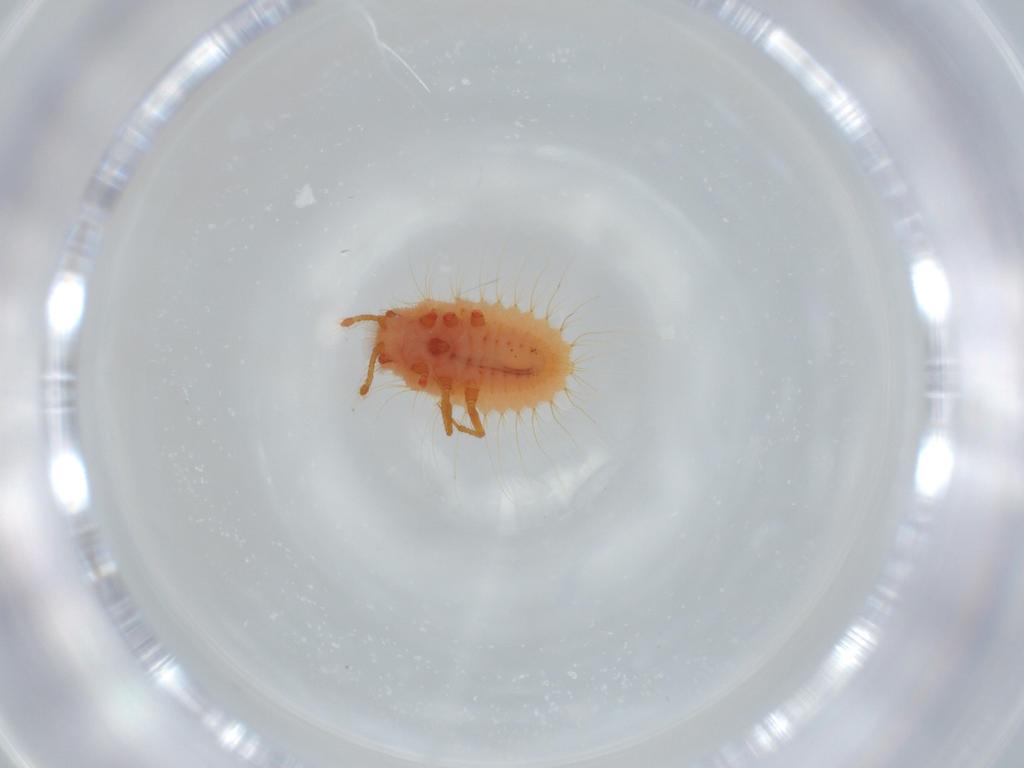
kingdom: Animalia
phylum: Arthropoda
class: Insecta
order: Hemiptera
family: Coccoidea_incertae_sedis
